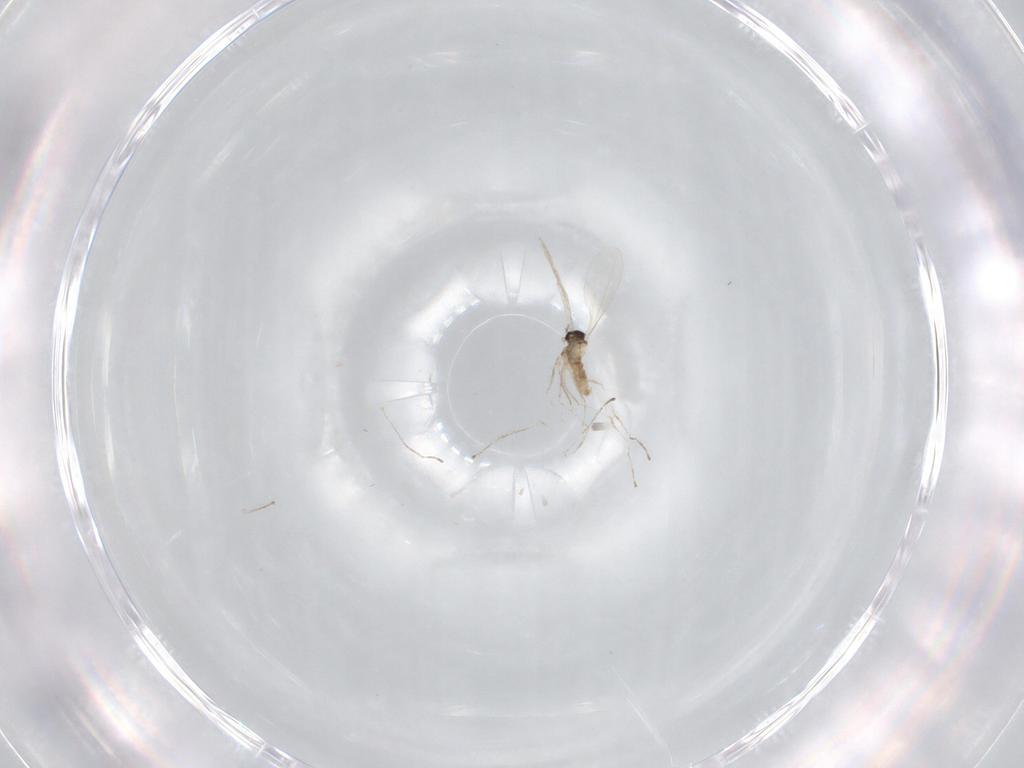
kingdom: Animalia
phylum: Arthropoda
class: Insecta
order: Diptera
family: Cecidomyiidae
